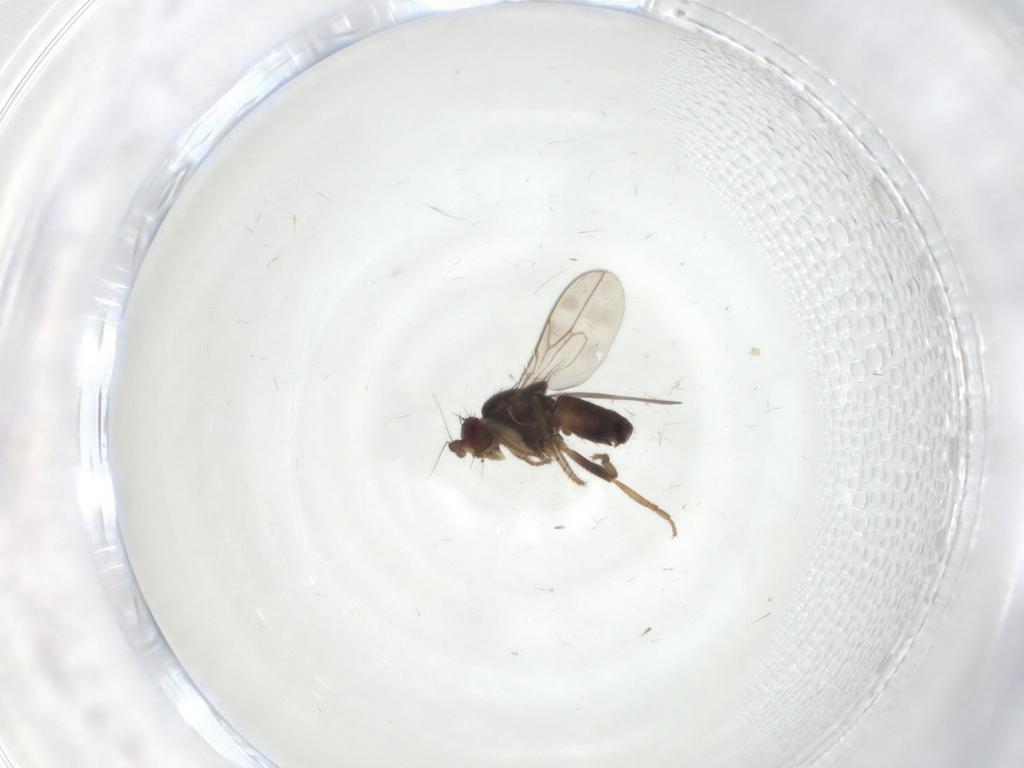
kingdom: Animalia
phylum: Arthropoda
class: Insecta
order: Diptera
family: Sphaeroceridae
